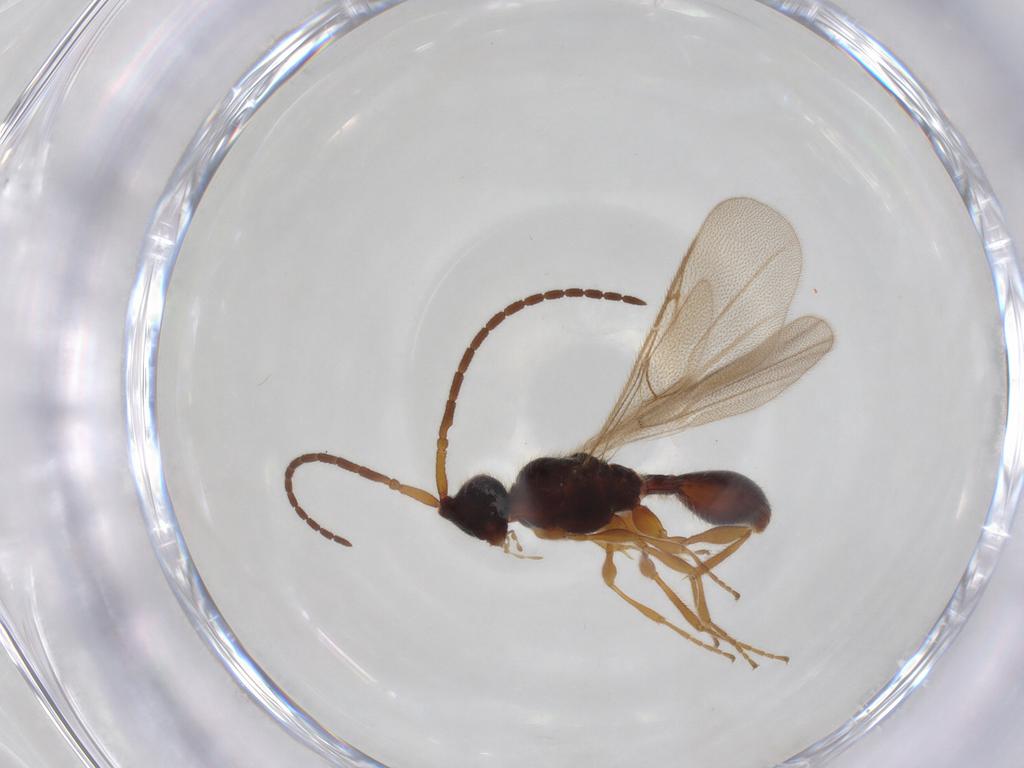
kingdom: Animalia
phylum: Arthropoda
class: Insecta
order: Hymenoptera
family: Diapriidae
